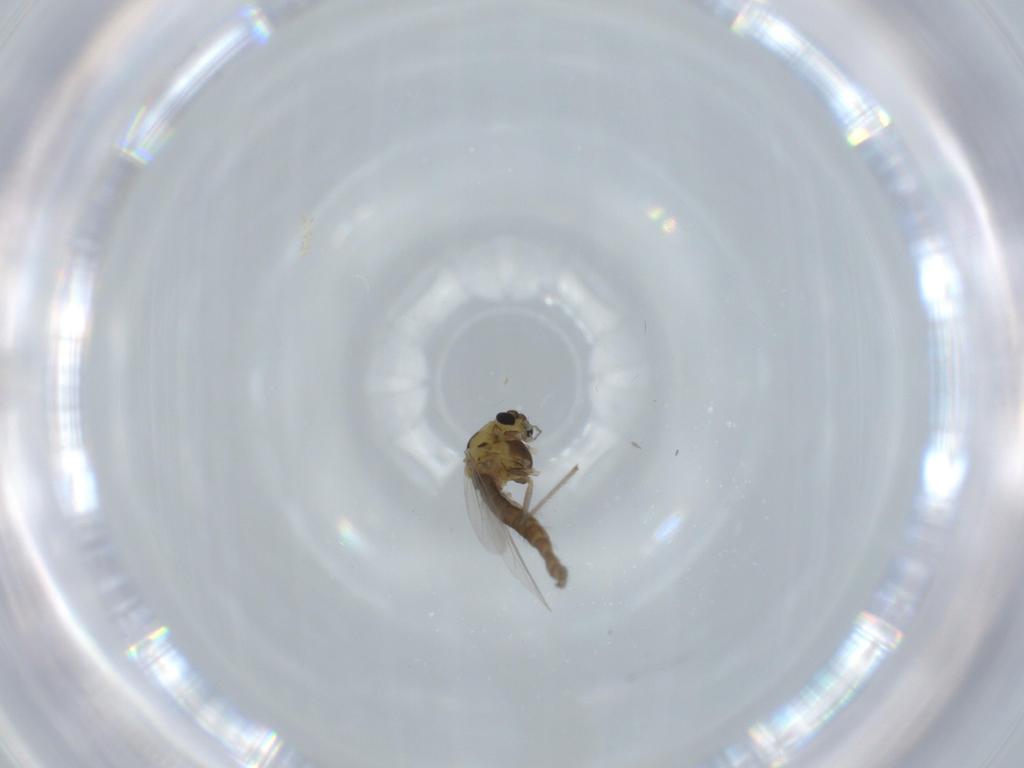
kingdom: Animalia
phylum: Arthropoda
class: Insecta
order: Diptera
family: Chironomidae
